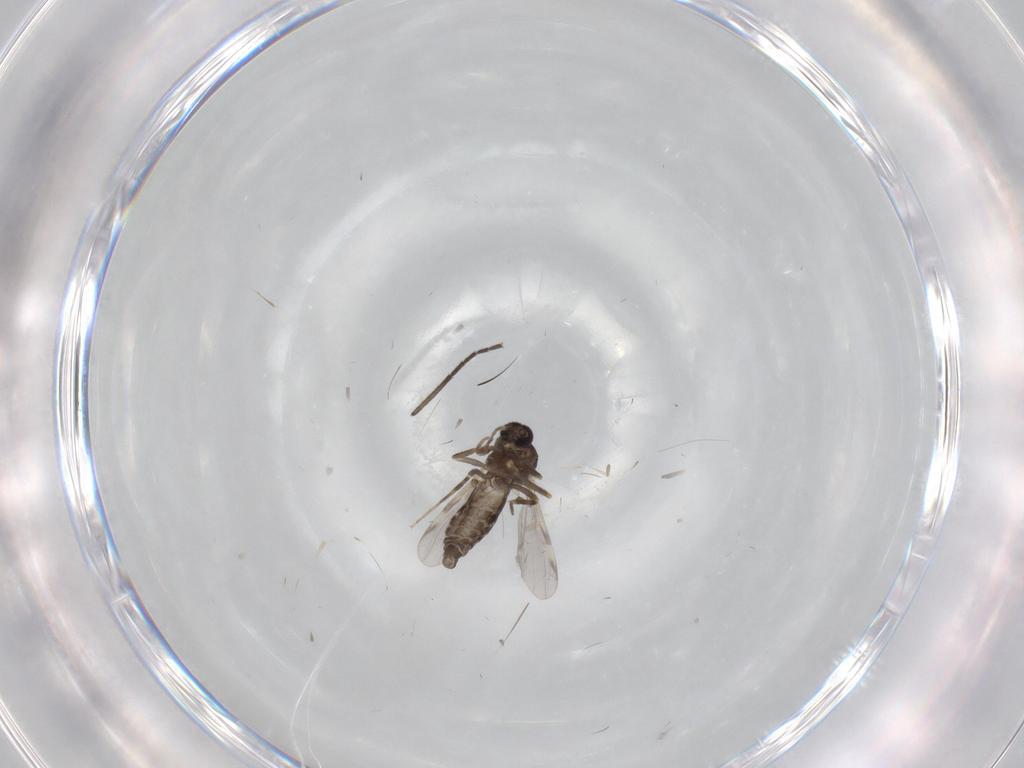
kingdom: Animalia
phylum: Arthropoda
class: Insecta
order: Diptera
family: Ceratopogonidae
